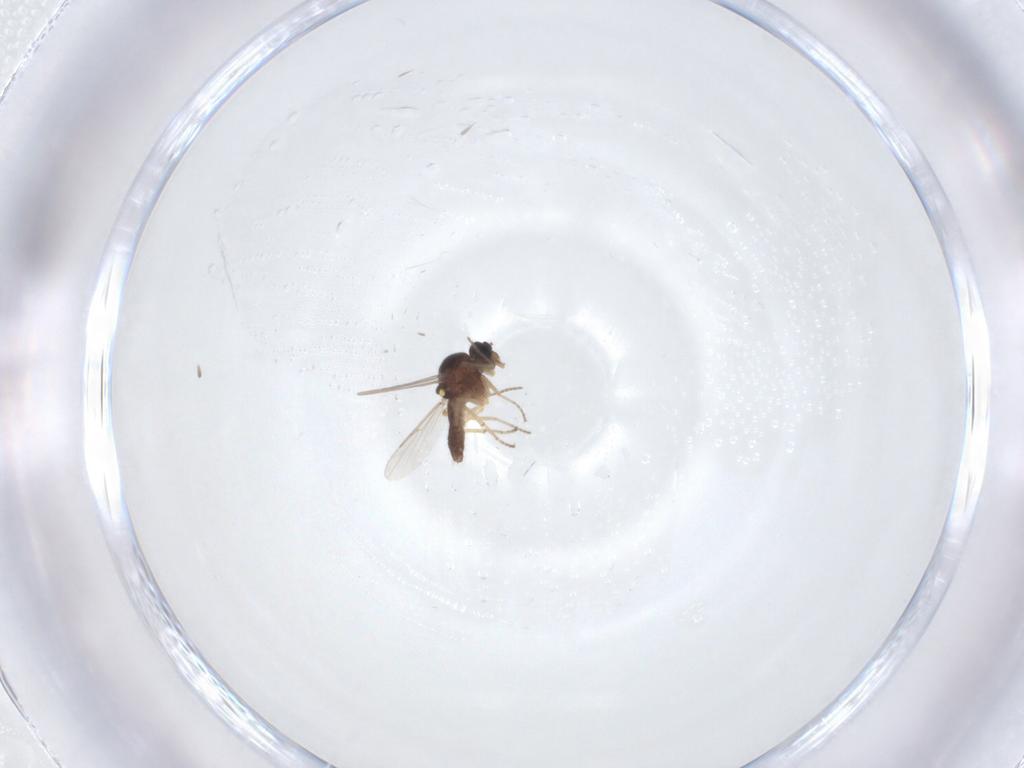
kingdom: Animalia
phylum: Arthropoda
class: Insecta
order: Diptera
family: Ceratopogonidae
